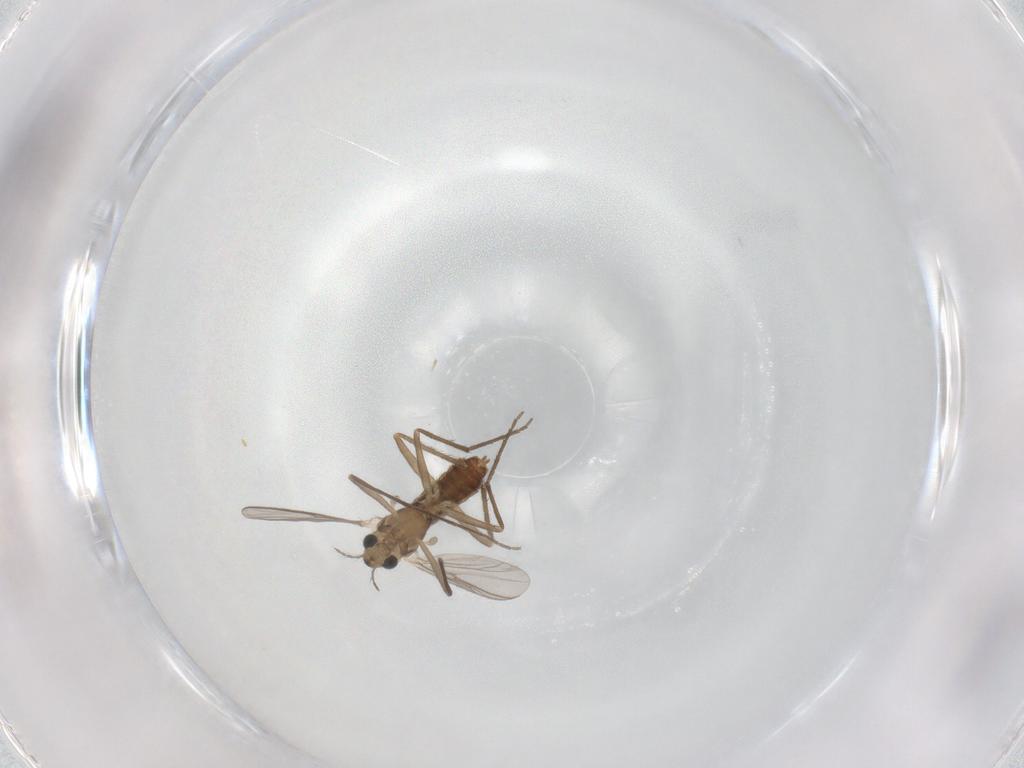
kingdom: Animalia
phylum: Arthropoda
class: Insecta
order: Diptera
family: Chironomidae
